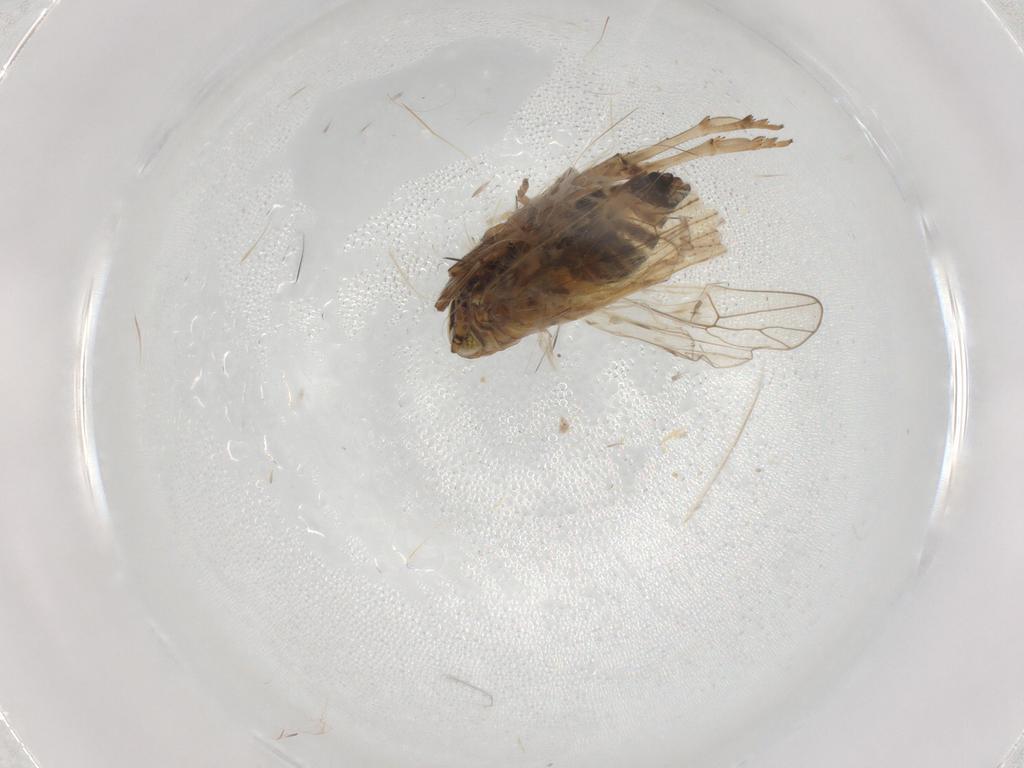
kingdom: Animalia
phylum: Arthropoda
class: Insecta
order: Hemiptera
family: Delphacidae
